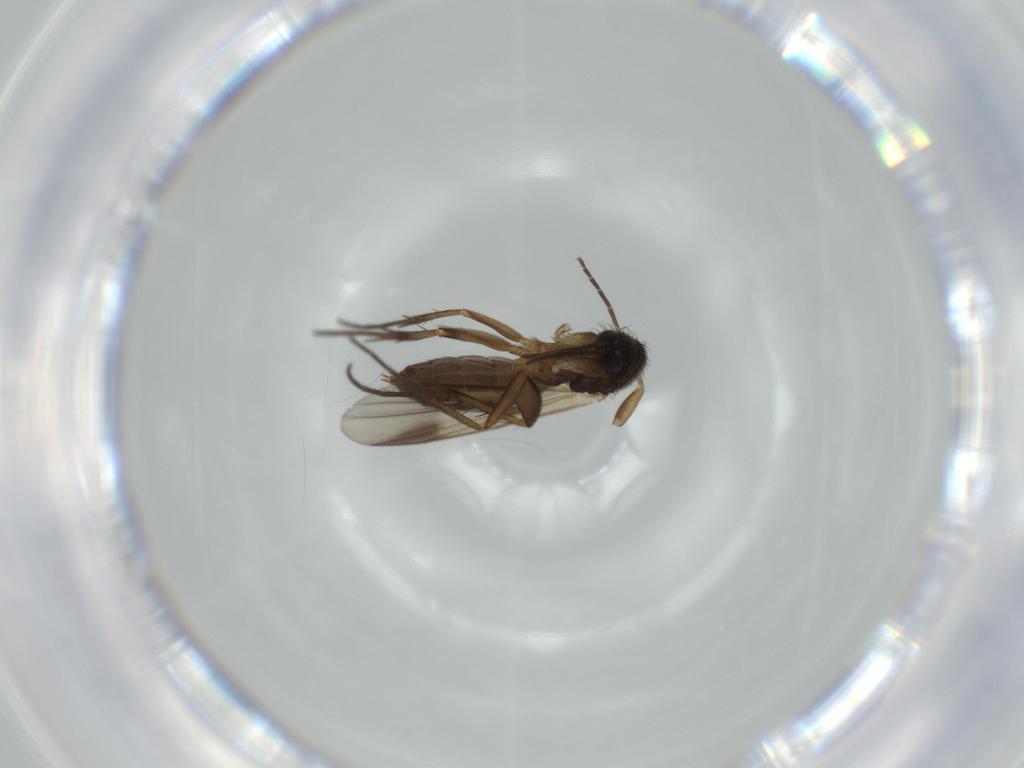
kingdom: Animalia
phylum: Arthropoda
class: Insecta
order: Diptera
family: Mycetophilidae
